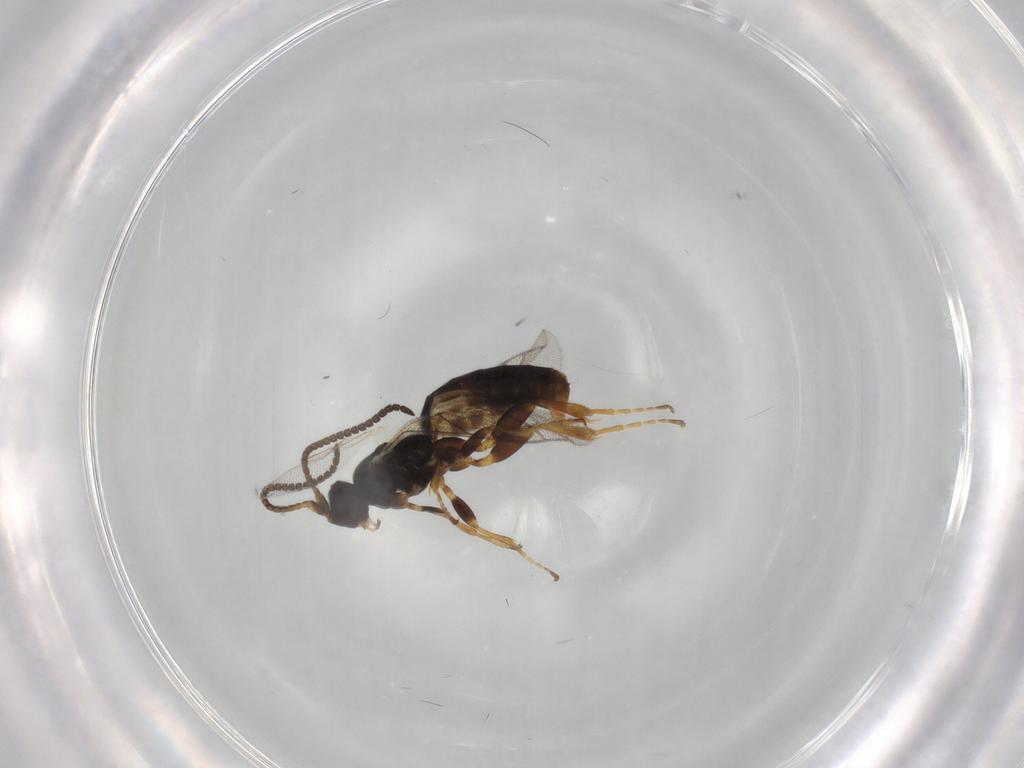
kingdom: Animalia
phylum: Arthropoda
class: Insecta
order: Hymenoptera
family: Ichneumonidae
